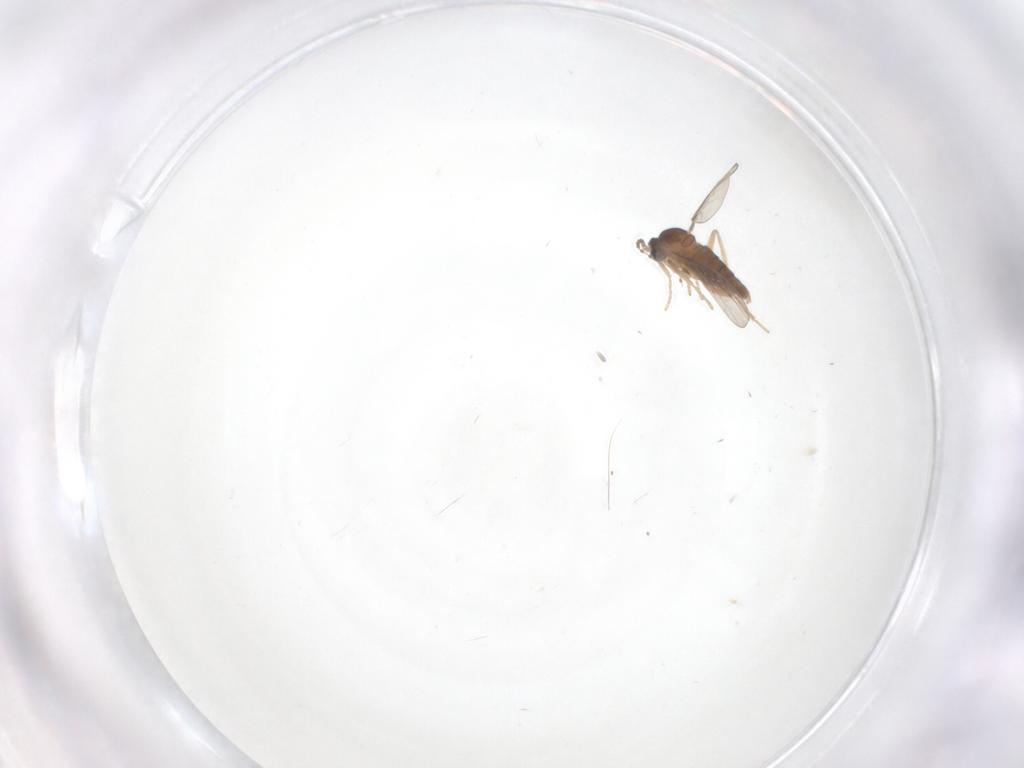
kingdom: Animalia
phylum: Arthropoda
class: Insecta
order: Diptera
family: Cecidomyiidae
